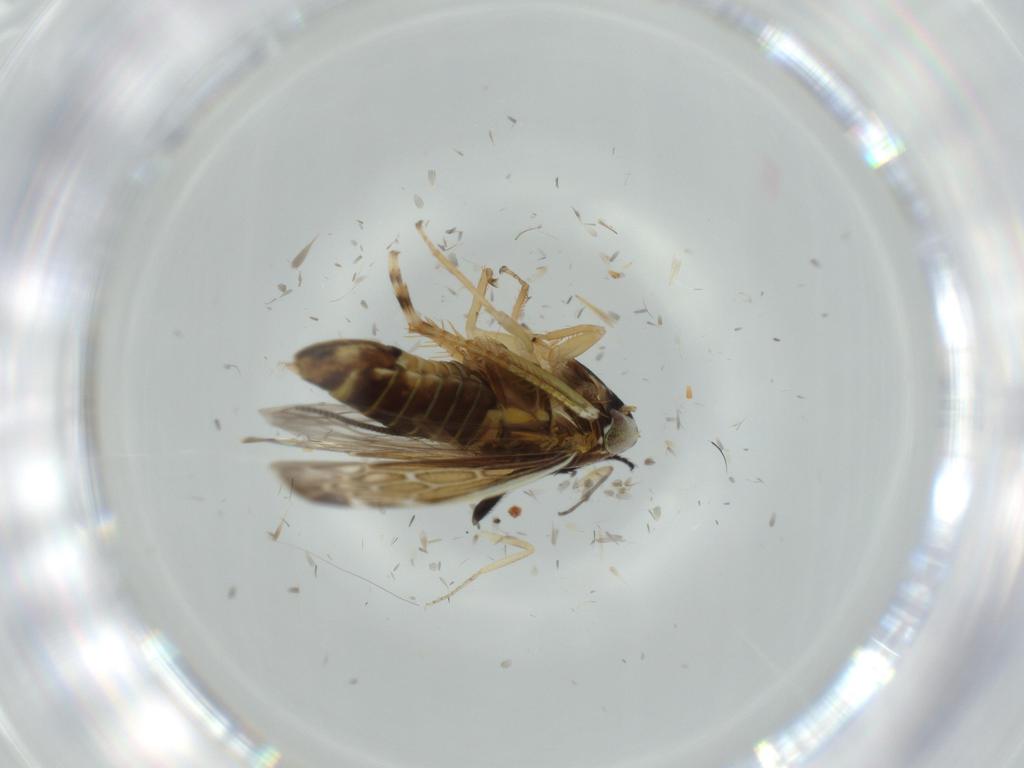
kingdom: Animalia
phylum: Arthropoda
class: Insecta
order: Hemiptera
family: Cicadellidae
